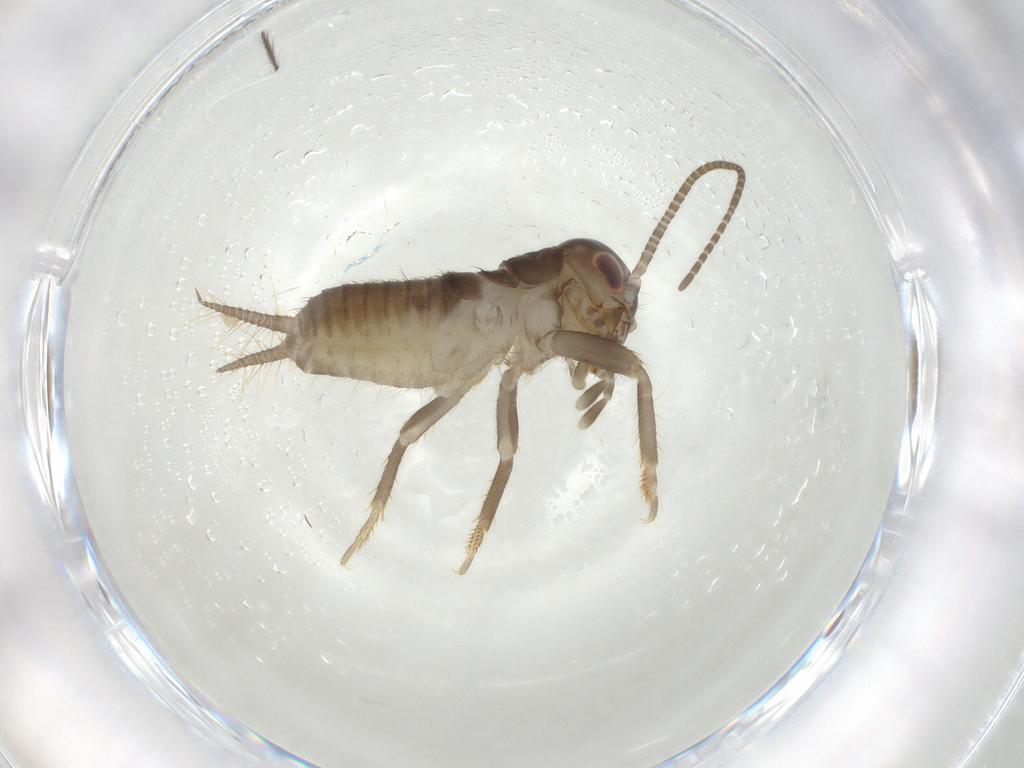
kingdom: Animalia
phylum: Arthropoda
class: Insecta
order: Orthoptera
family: Gryllidae
